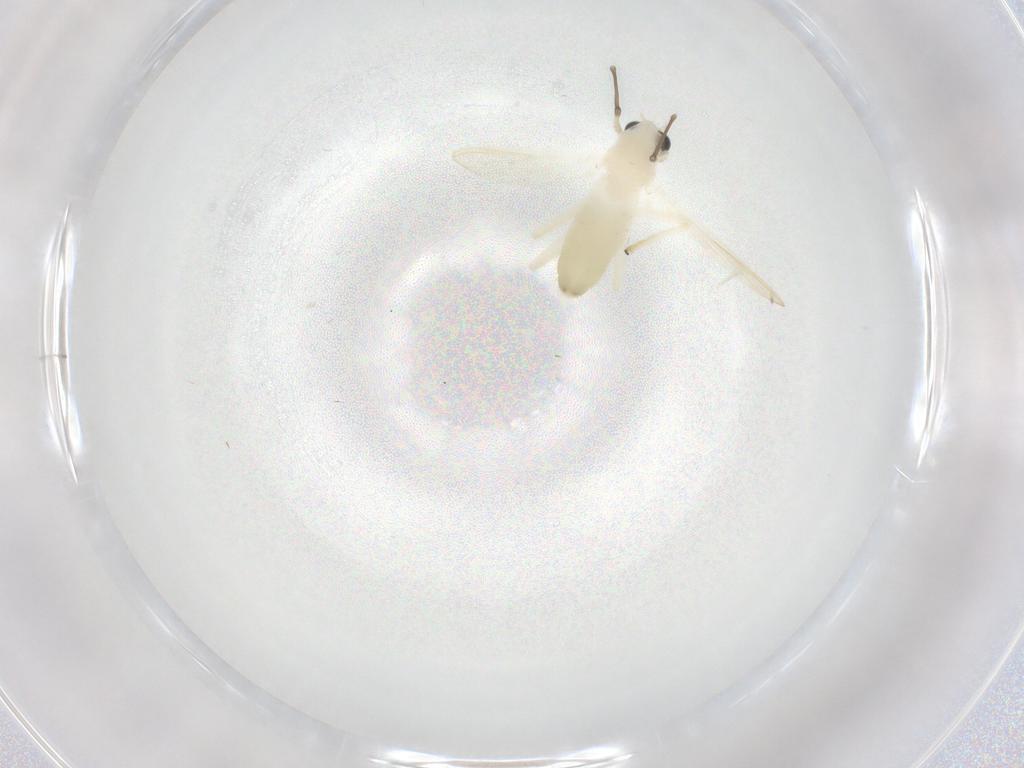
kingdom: Animalia
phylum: Arthropoda
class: Insecta
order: Diptera
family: Phoridae
